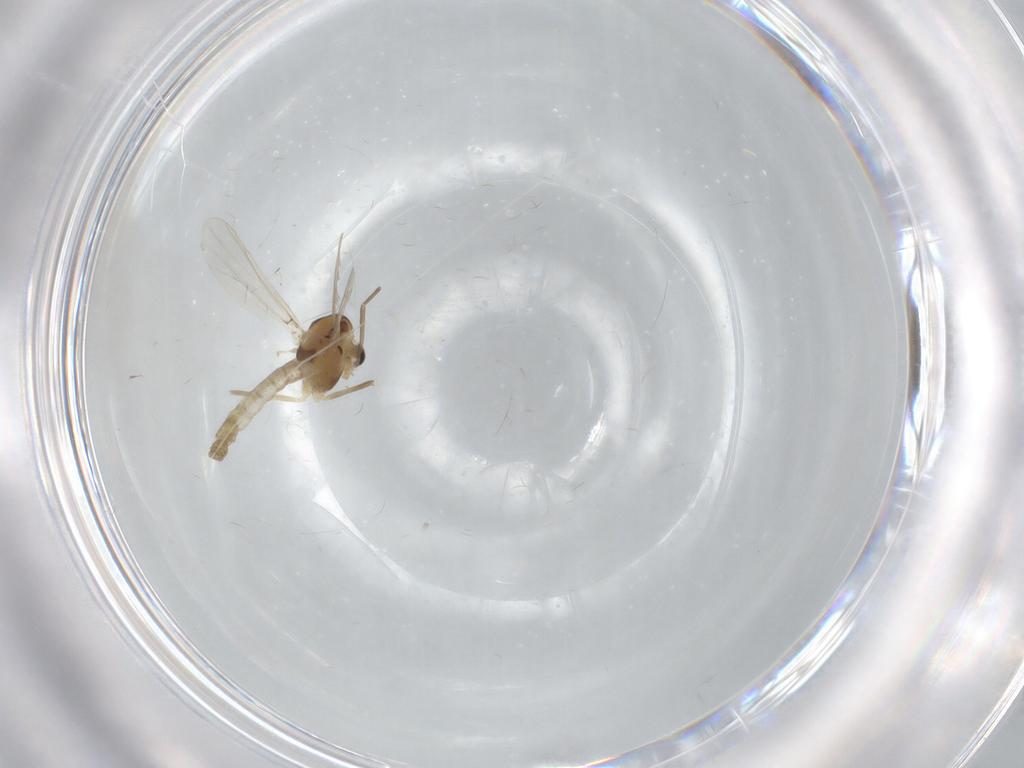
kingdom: Animalia
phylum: Arthropoda
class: Insecta
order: Diptera
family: Chironomidae
